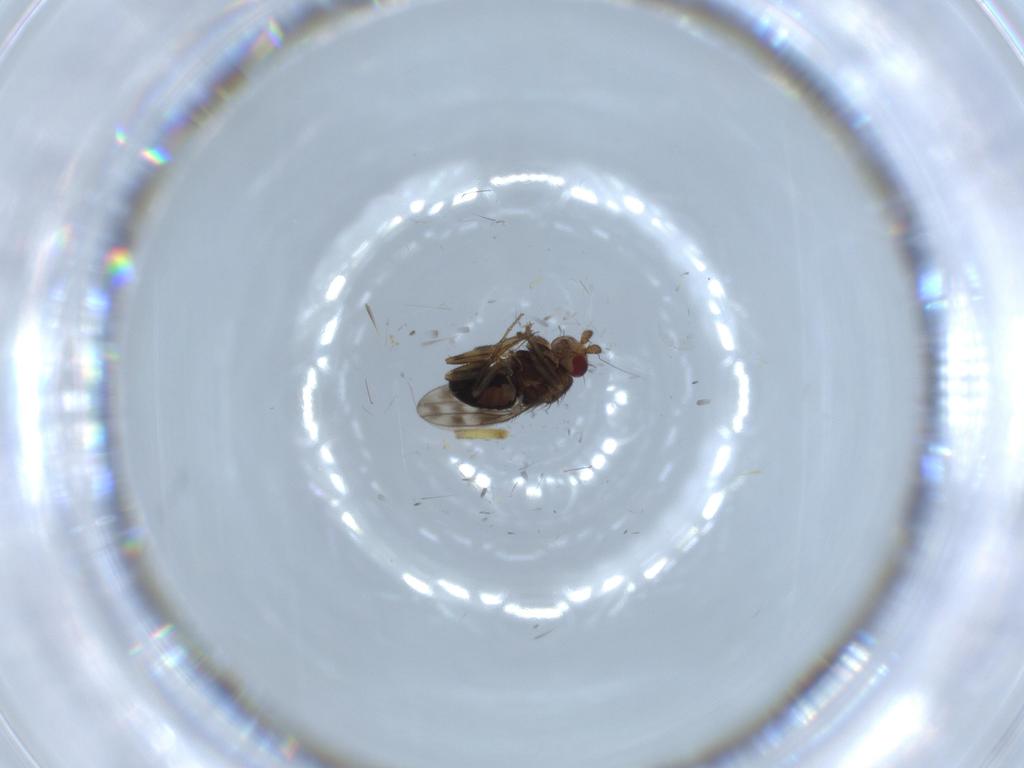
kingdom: Animalia
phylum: Arthropoda
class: Insecta
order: Diptera
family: Sphaeroceridae
